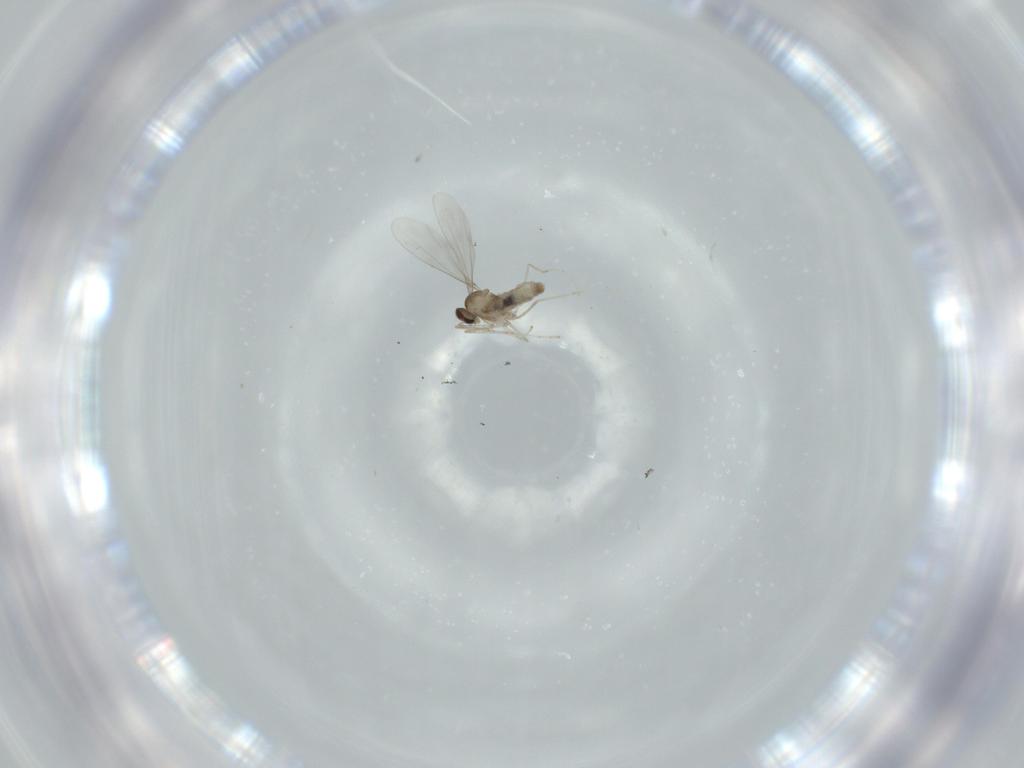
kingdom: Animalia
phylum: Arthropoda
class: Insecta
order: Diptera
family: Cecidomyiidae
